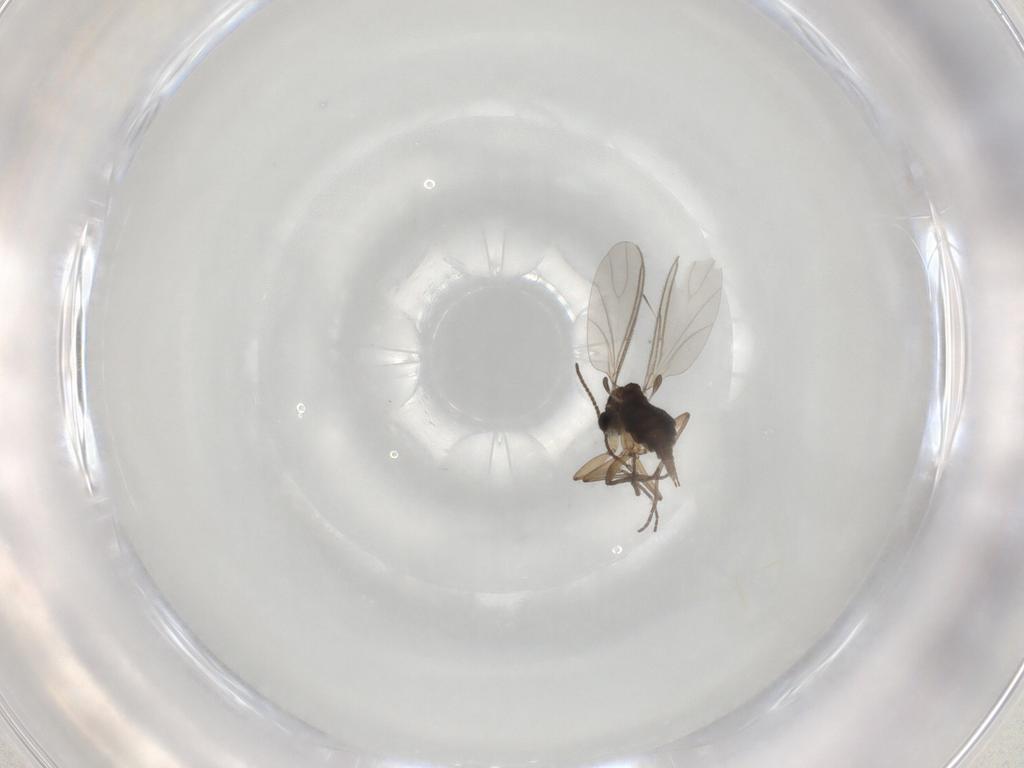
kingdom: Animalia
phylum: Arthropoda
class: Insecta
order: Diptera
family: Sciaridae
